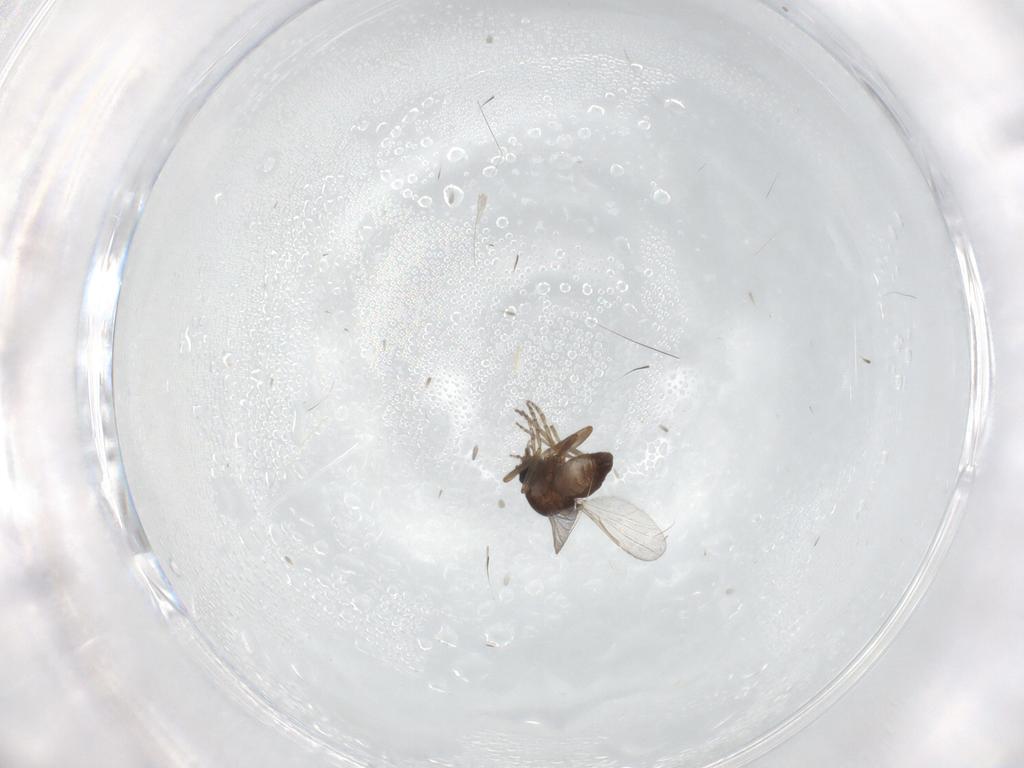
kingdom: Animalia
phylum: Arthropoda
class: Insecta
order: Diptera
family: Ceratopogonidae
